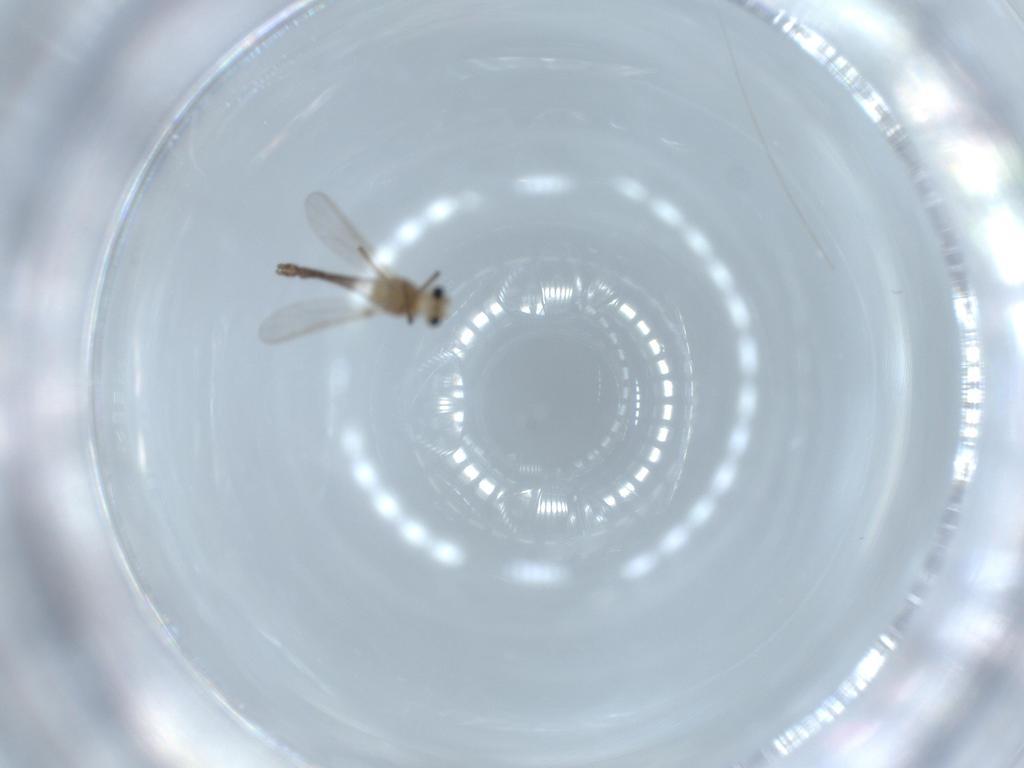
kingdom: Animalia
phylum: Arthropoda
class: Insecta
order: Diptera
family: Chironomidae
